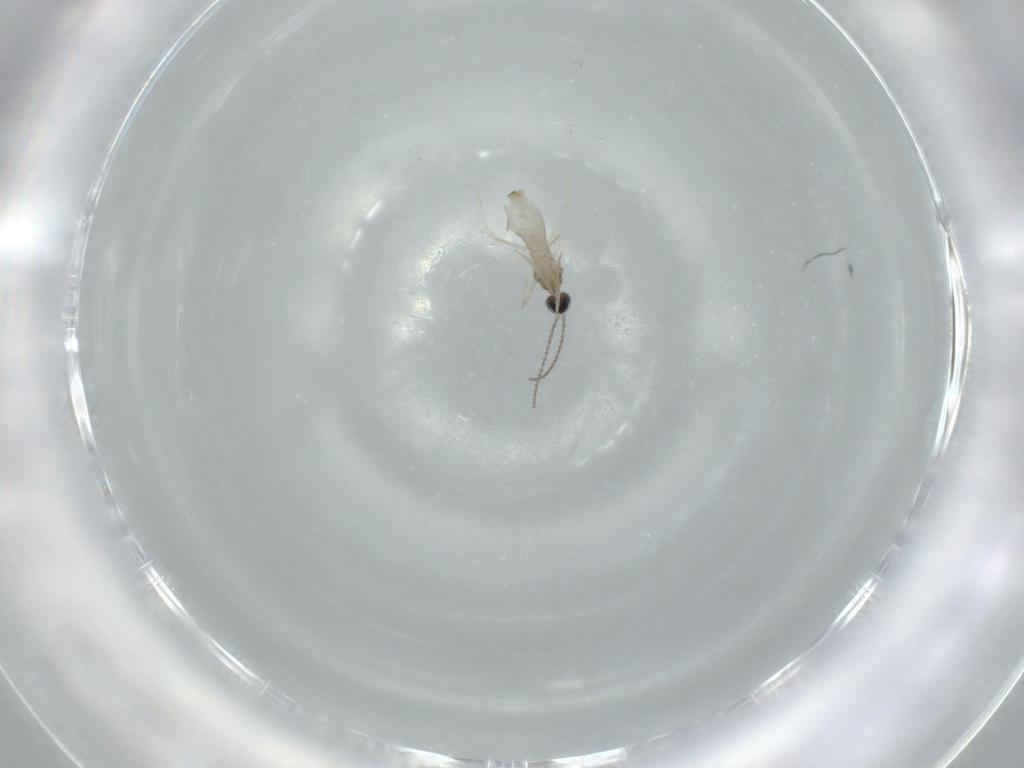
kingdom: Animalia
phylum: Arthropoda
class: Insecta
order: Diptera
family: Cecidomyiidae
